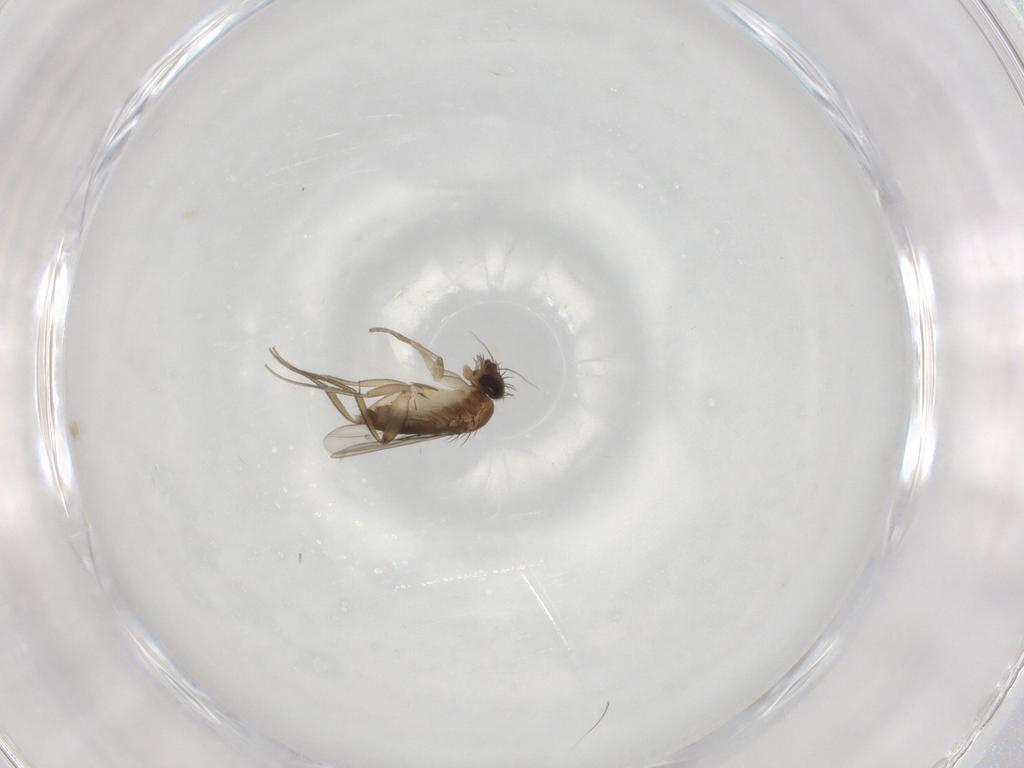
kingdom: Animalia
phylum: Arthropoda
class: Insecta
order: Diptera
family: Phoridae
